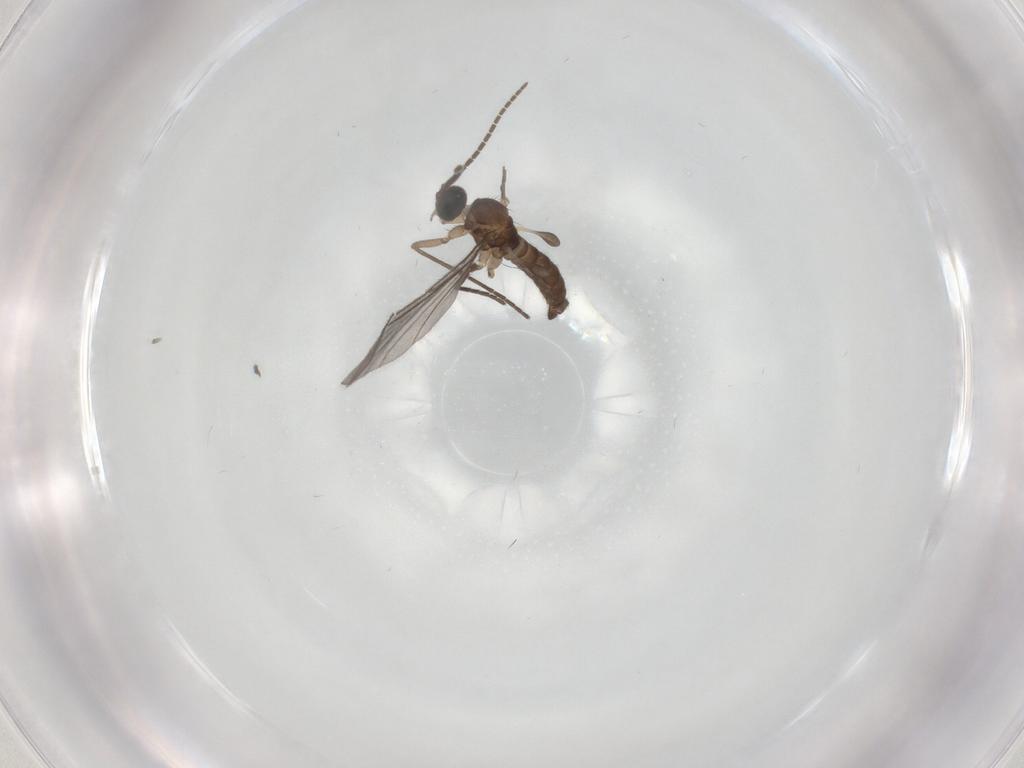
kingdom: Animalia
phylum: Arthropoda
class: Insecta
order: Diptera
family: Sciaridae
